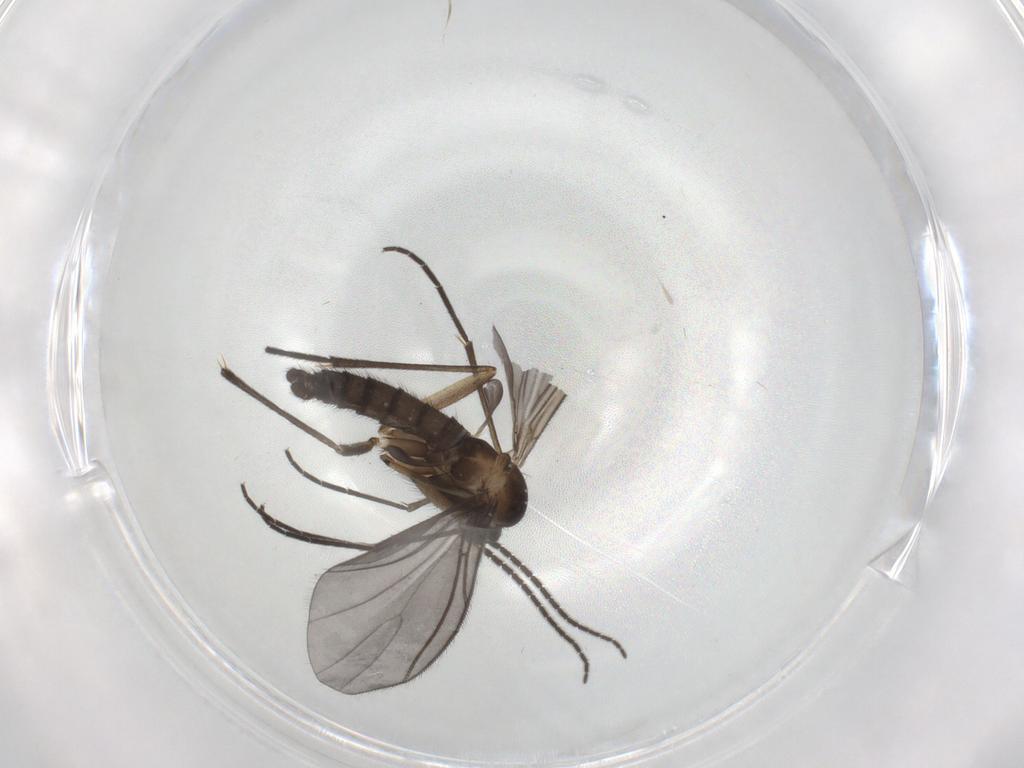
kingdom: Animalia
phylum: Arthropoda
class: Insecta
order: Diptera
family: Sciaridae
